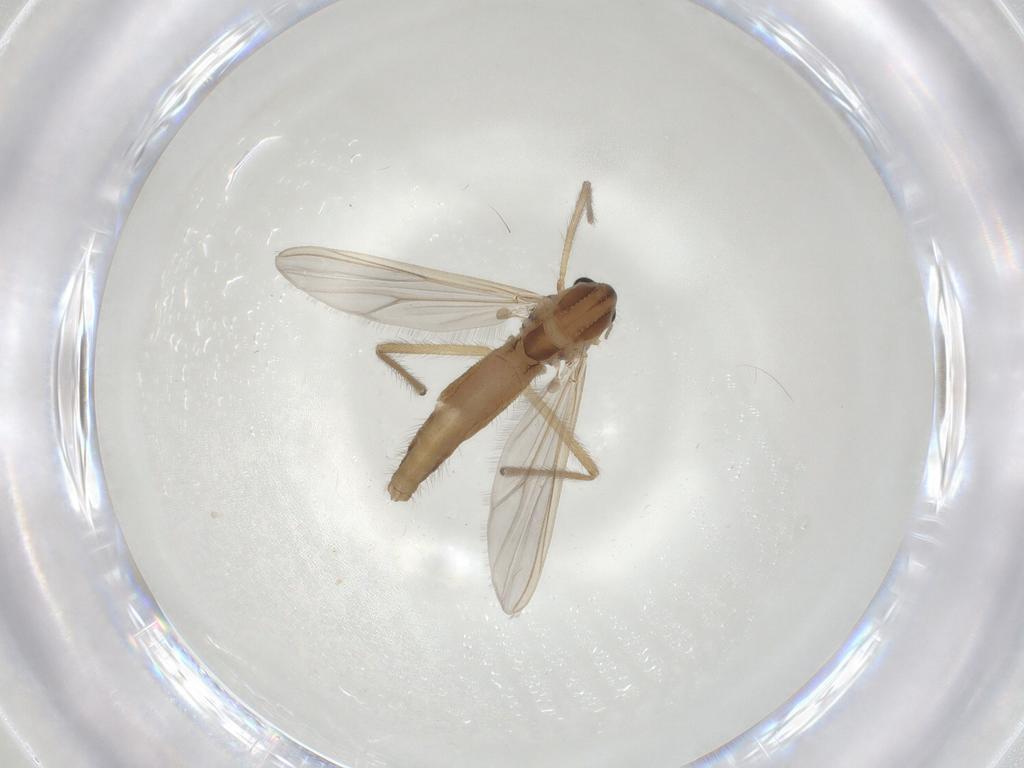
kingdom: Animalia
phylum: Arthropoda
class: Insecta
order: Diptera
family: Chironomidae
